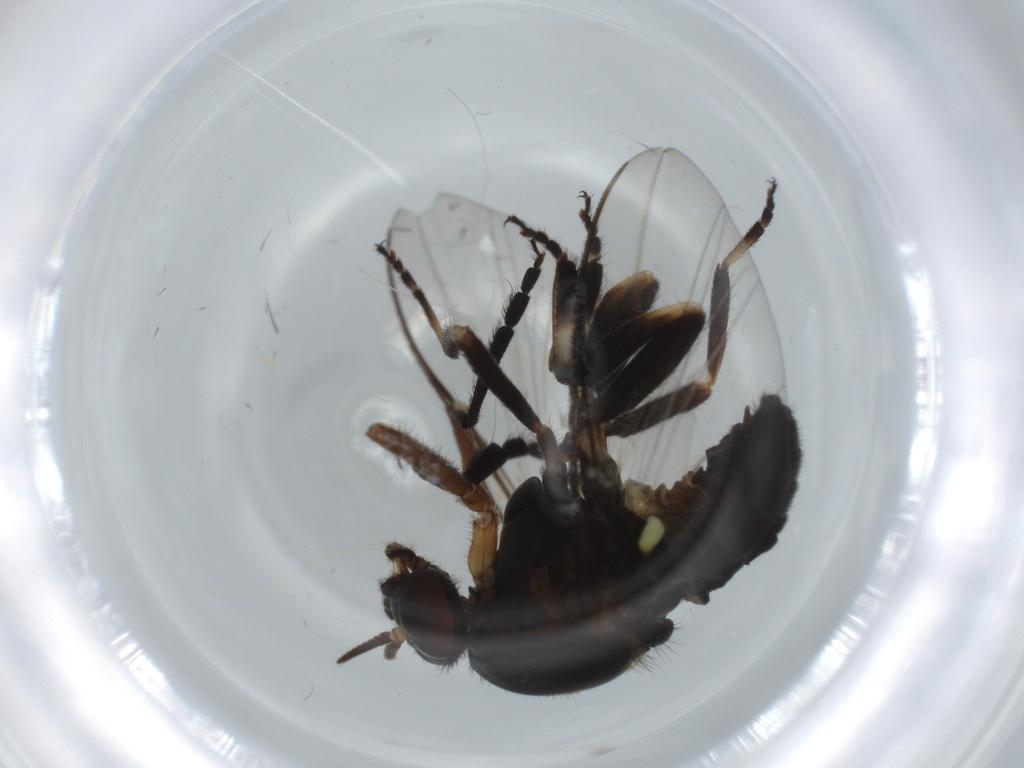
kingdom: Animalia
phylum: Arthropoda
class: Insecta
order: Diptera
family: Sciaridae
